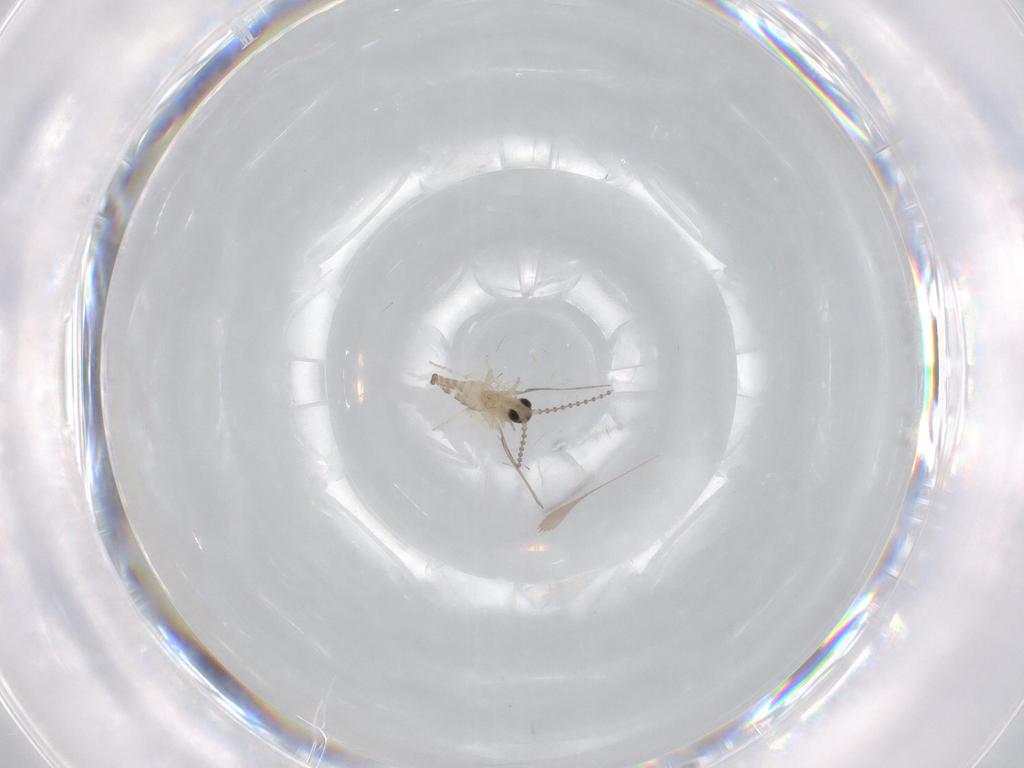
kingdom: Animalia
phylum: Arthropoda
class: Insecta
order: Diptera
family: Cecidomyiidae
